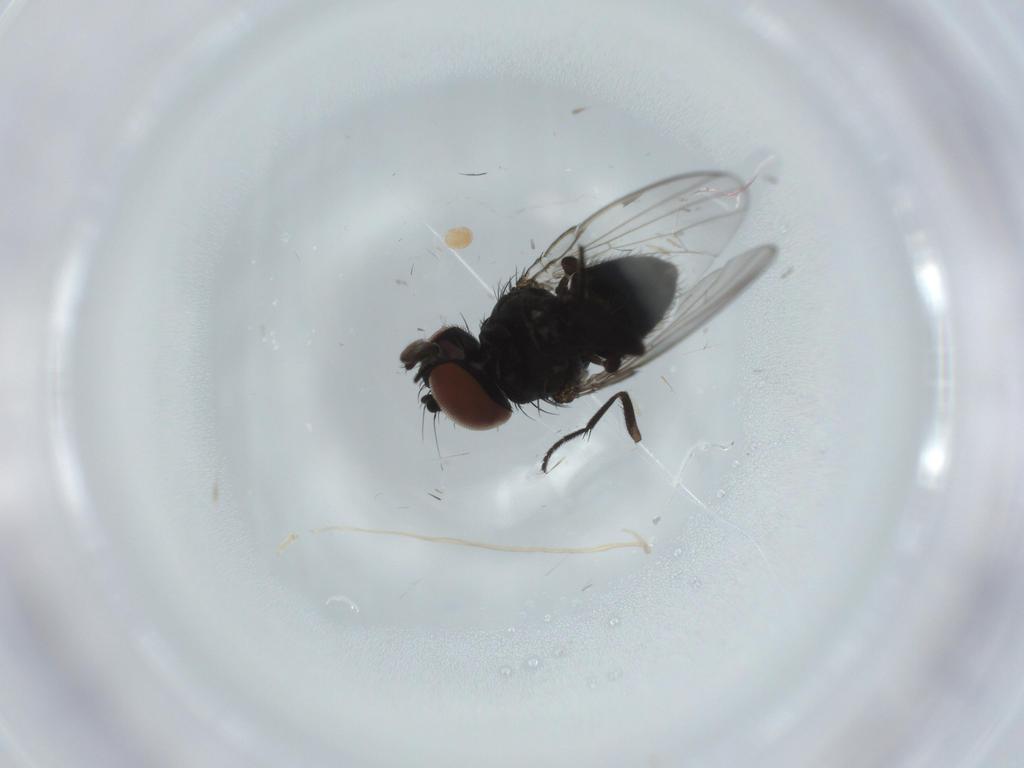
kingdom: Animalia
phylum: Arthropoda
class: Insecta
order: Diptera
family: Milichiidae
